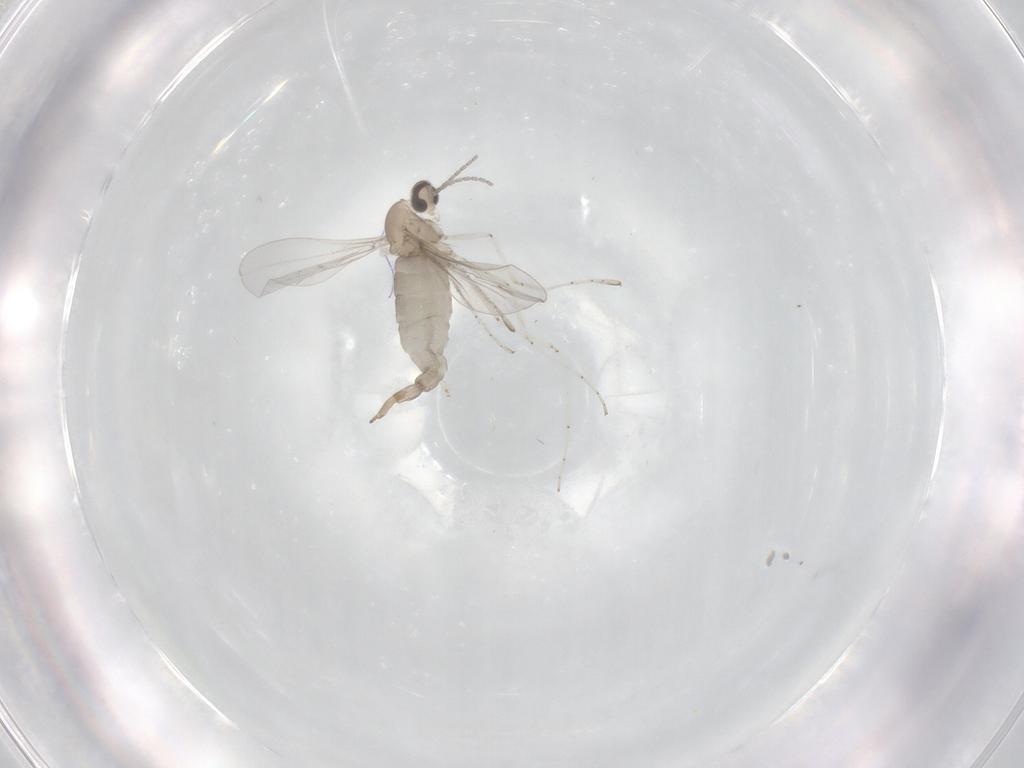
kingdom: Animalia
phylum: Arthropoda
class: Insecta
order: Diptera
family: Cecidomyiidae
